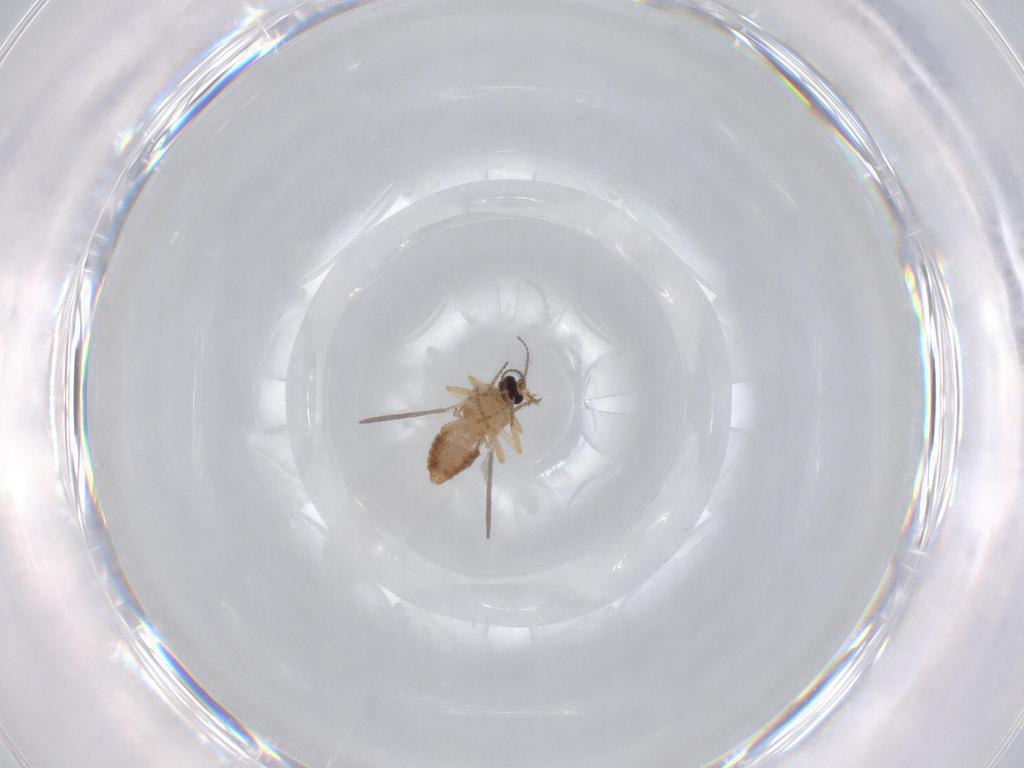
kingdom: Animalia
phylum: Arthropoda
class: Insecta
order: Diptera
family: Ceratopogonidae
